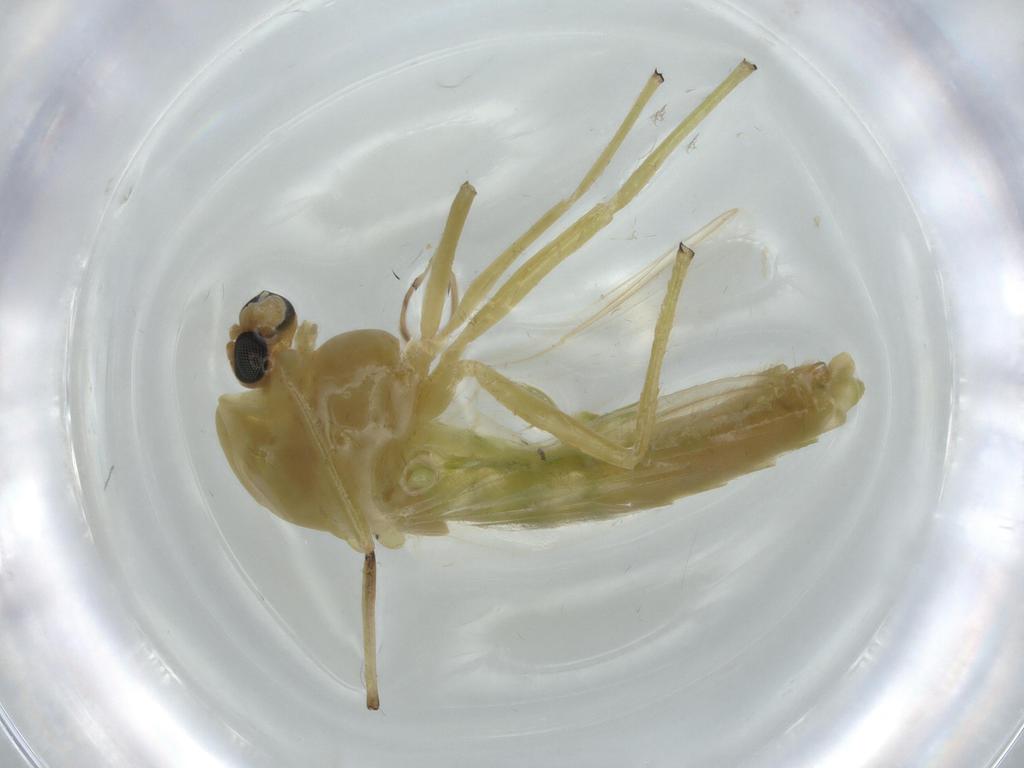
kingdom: Animalia
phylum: Arthropoda
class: Insecta
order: Diptera
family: Chironomidae
